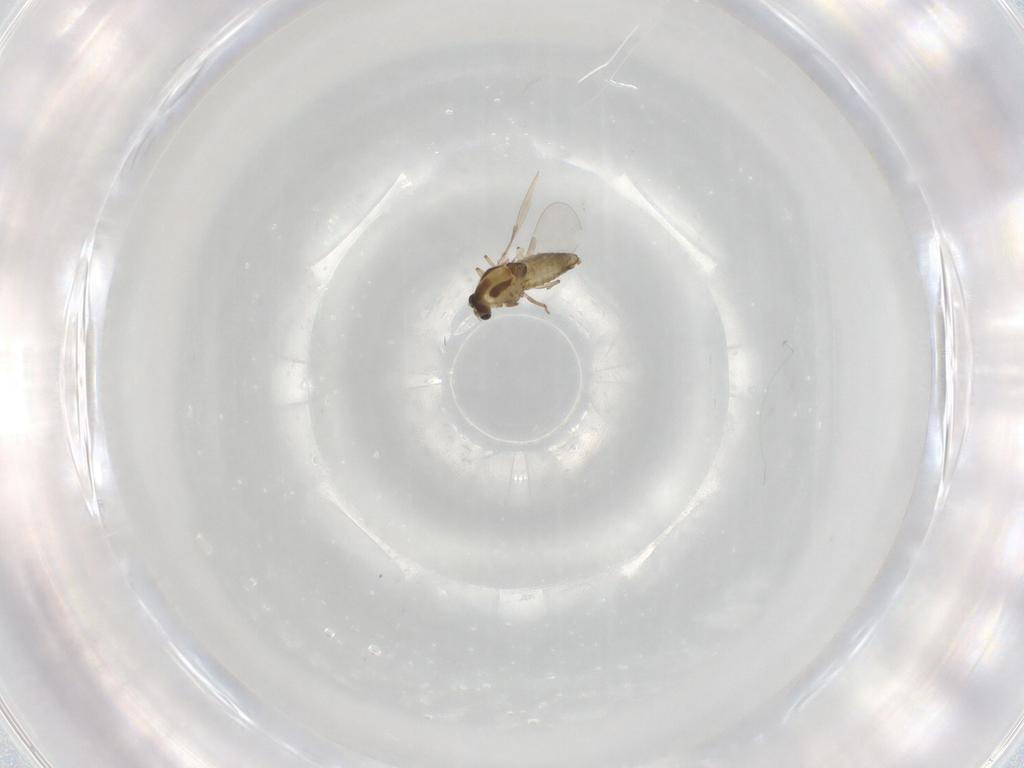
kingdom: Animalia
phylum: Arthropoda
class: Insecta
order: Diptera
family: Chironomidae
